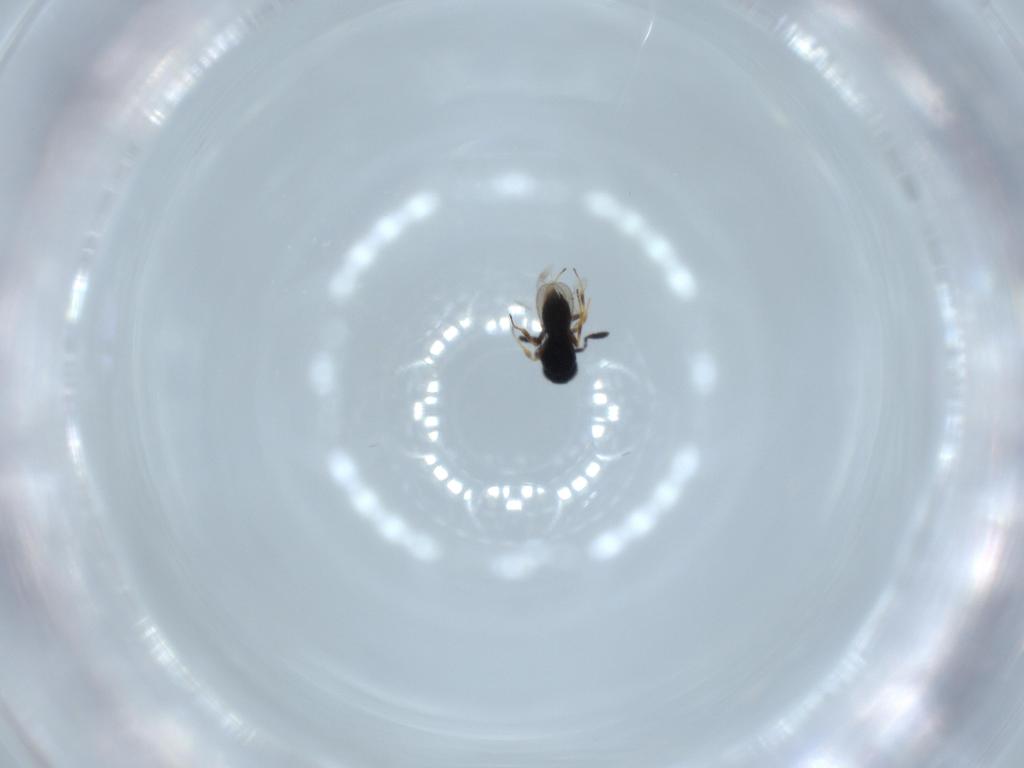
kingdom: Animalia
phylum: Arthropoda
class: Insecta
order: Hymenoptera
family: Scelionidae
